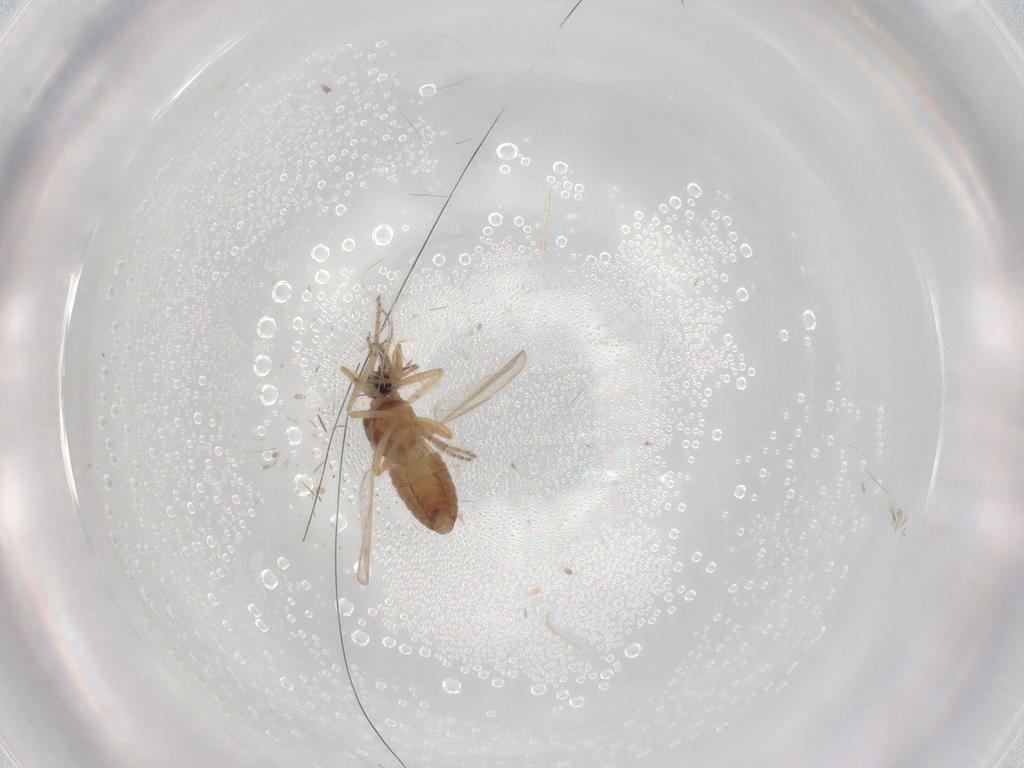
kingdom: Animalia
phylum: Arthropoda
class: Insecta
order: Diptera
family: Ceratopogonidae
